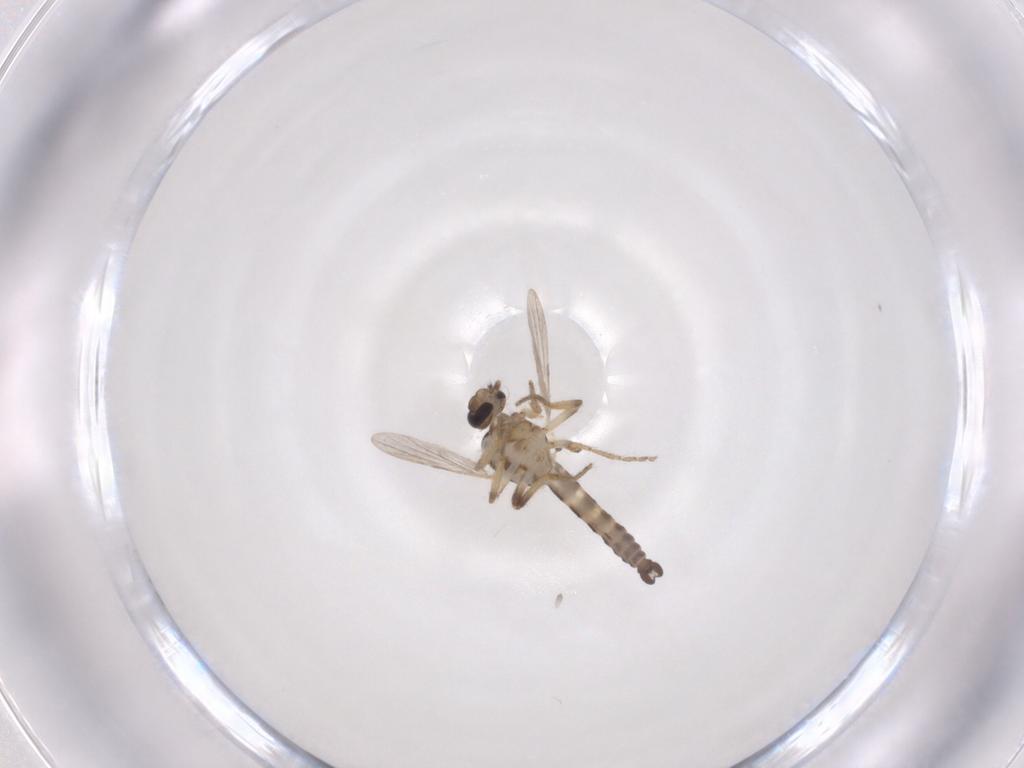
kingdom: Animalia
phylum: Arthropoda
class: Insecta
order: Diptera
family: Ceratopogonidae
